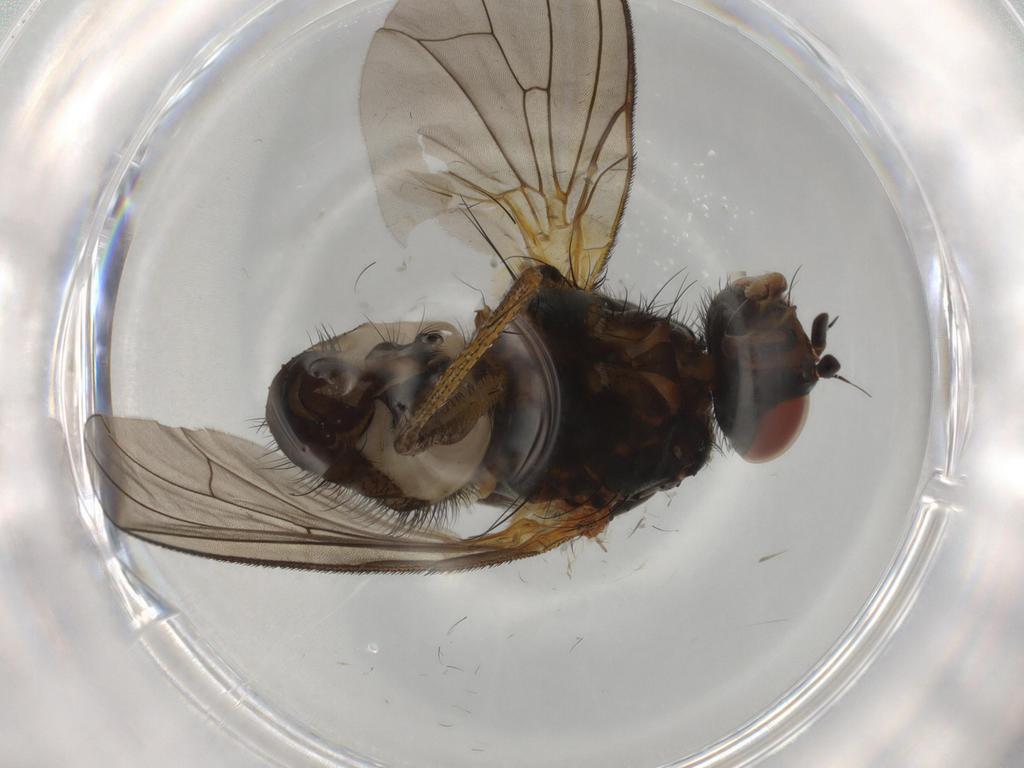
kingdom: Animalia
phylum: Arthropoda
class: Insecta
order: Diptera
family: Anthomyiidae
